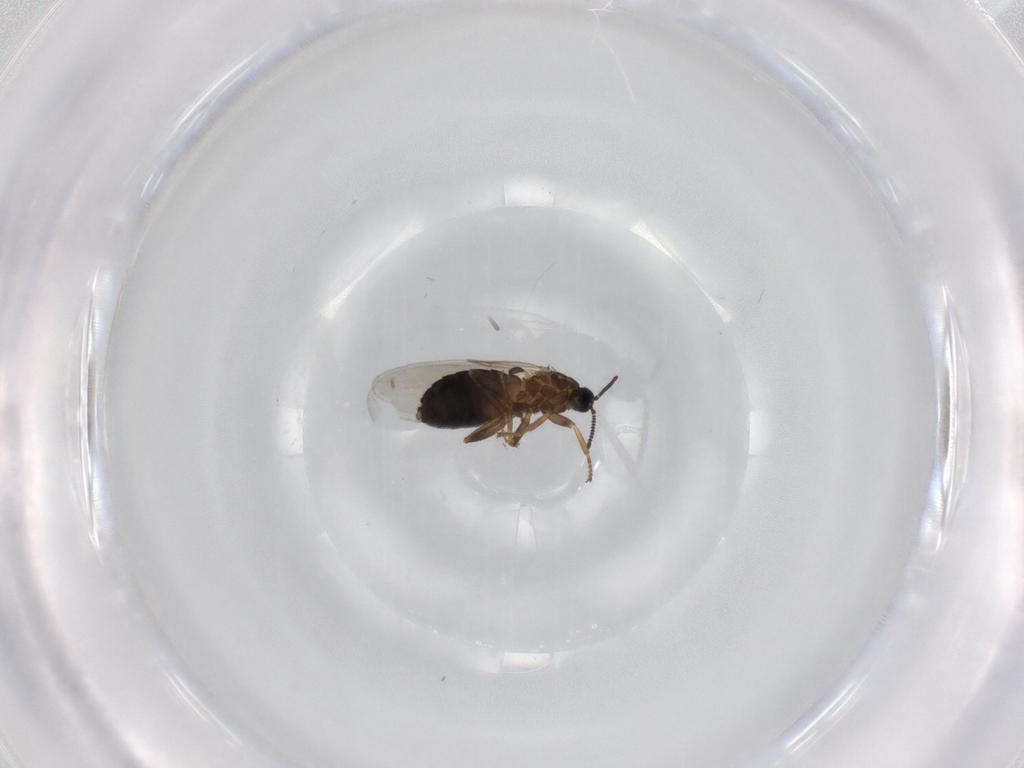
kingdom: Animalia
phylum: Arthropoda
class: Insecta
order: Diptera
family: Scatopsidae
